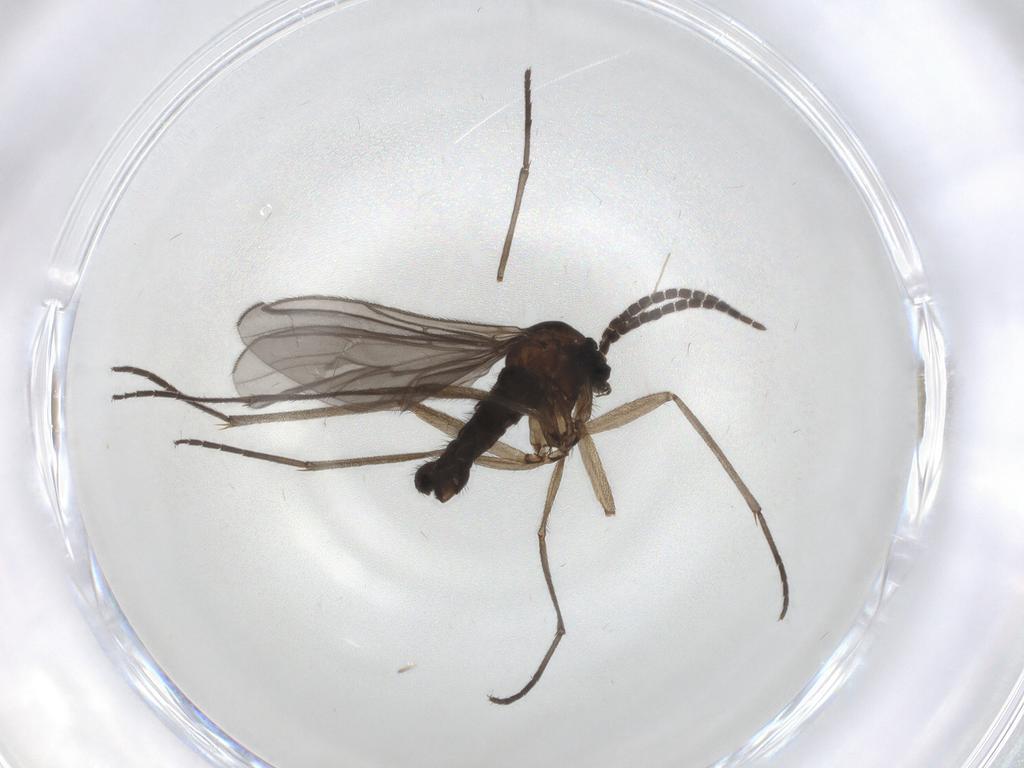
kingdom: Animalia
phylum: Arthropoda
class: Insecta
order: Diptera
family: Sciaridae
